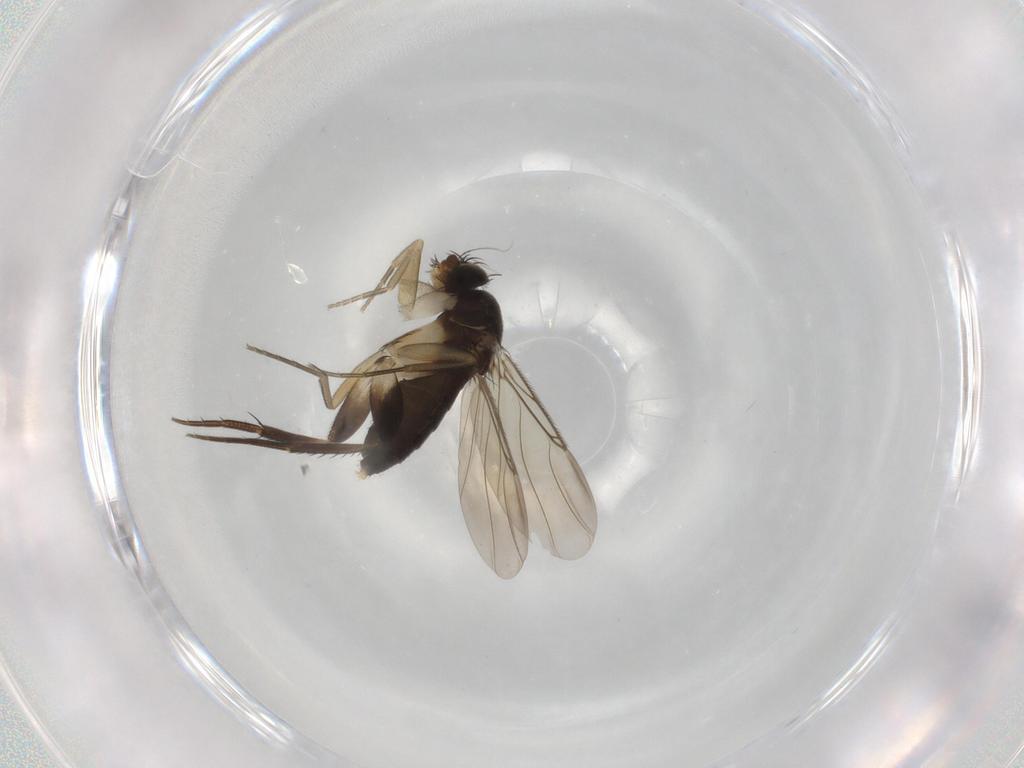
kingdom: Animalia
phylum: Arthropoda
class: Insecta
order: Diptera
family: Phoridae
